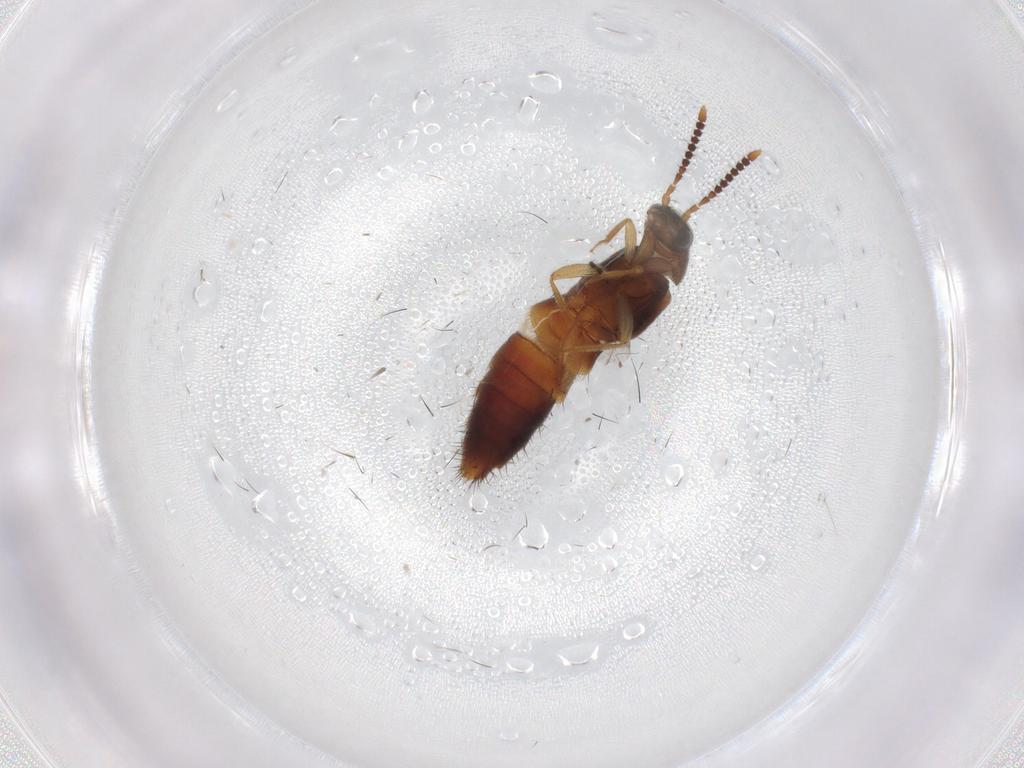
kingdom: Animalia
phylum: Arthropoda
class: Insecta
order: Coleoptera
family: Staphylinidae
